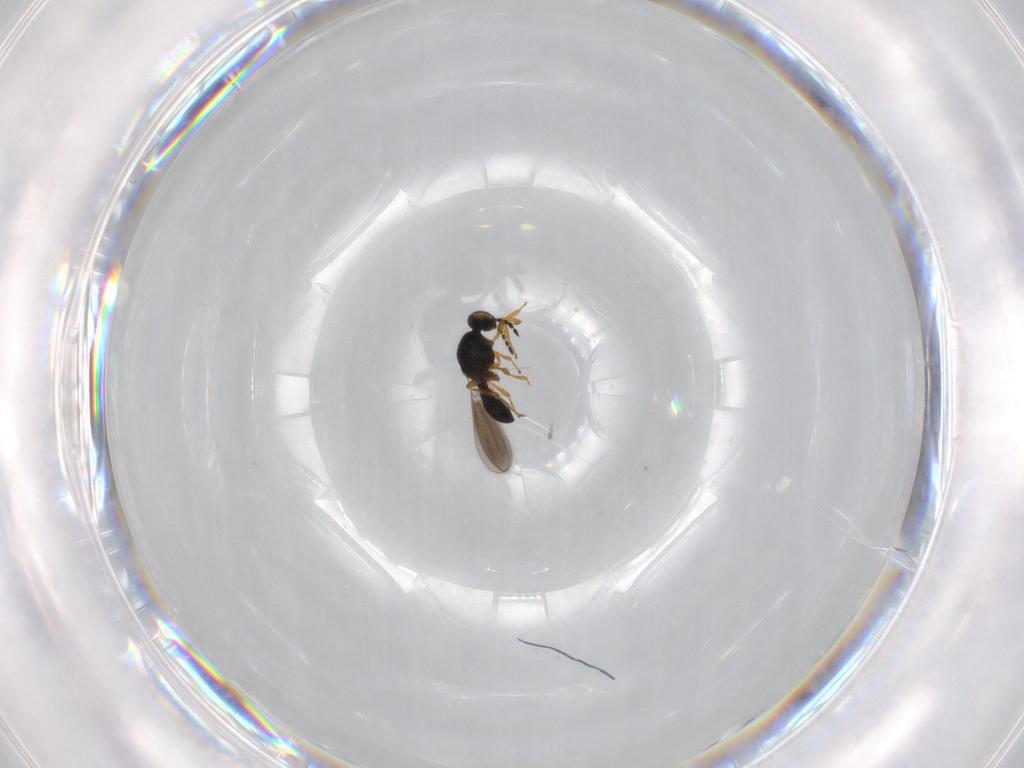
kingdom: Animalia
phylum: Arthropoda
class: Insecta
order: Hymenoptera
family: Platygastridae
